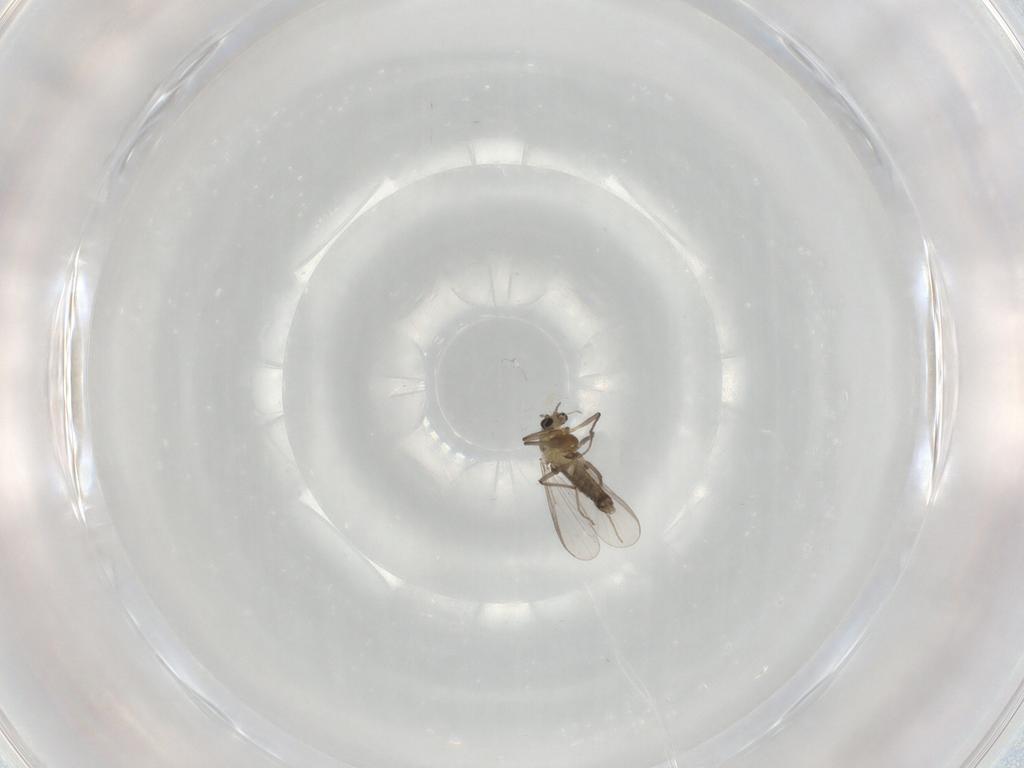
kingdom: Animalia
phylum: Arthropoda
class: Insecta
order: Diptera
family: Chironomidae
